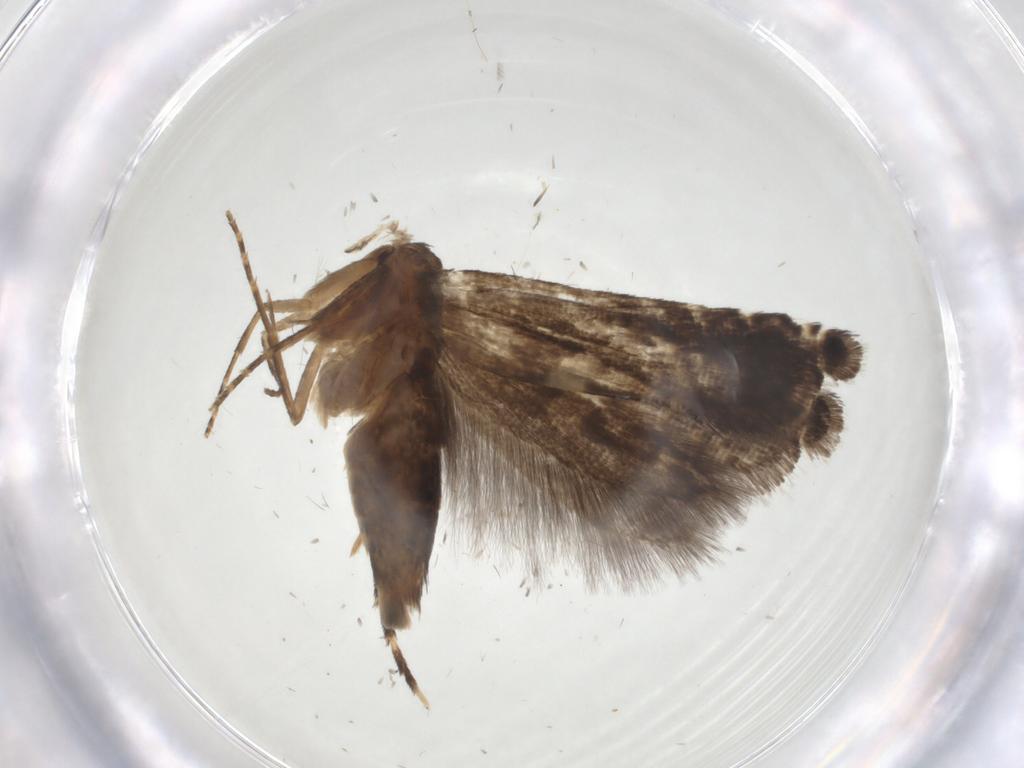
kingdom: Animalia
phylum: Arthropoda
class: Insecta
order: Lepidoptera
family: Glyphipterigidae
